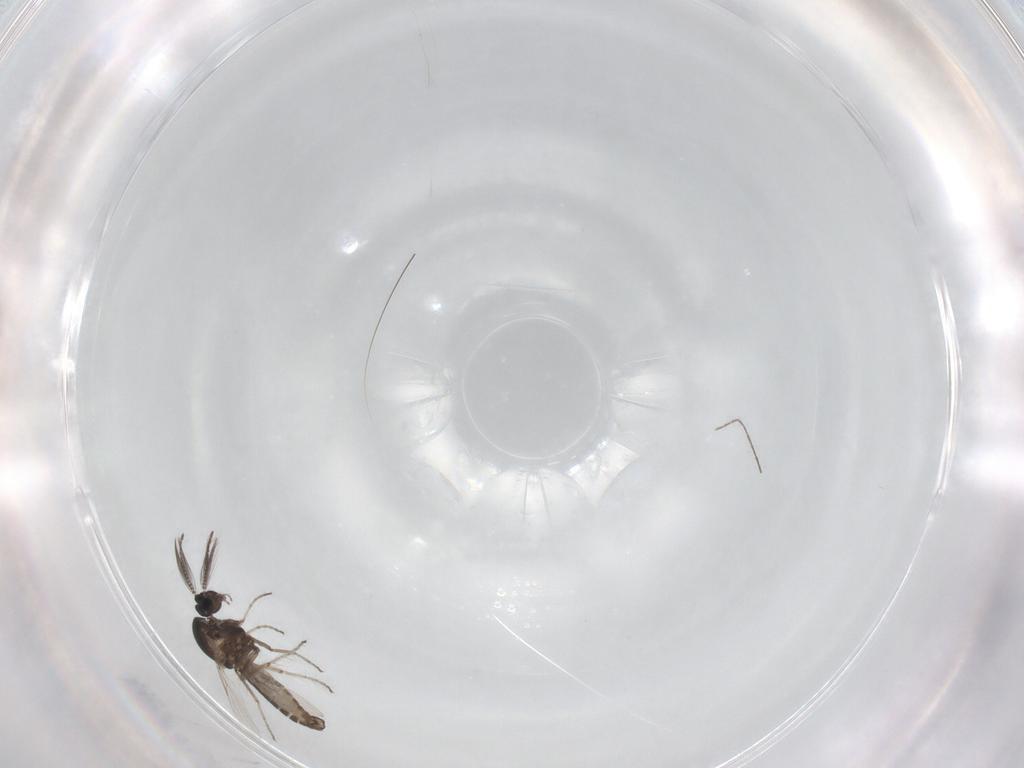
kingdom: Animalia
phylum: Arthropoda
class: Insecta
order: Diptera
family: Ceratopogonidae
